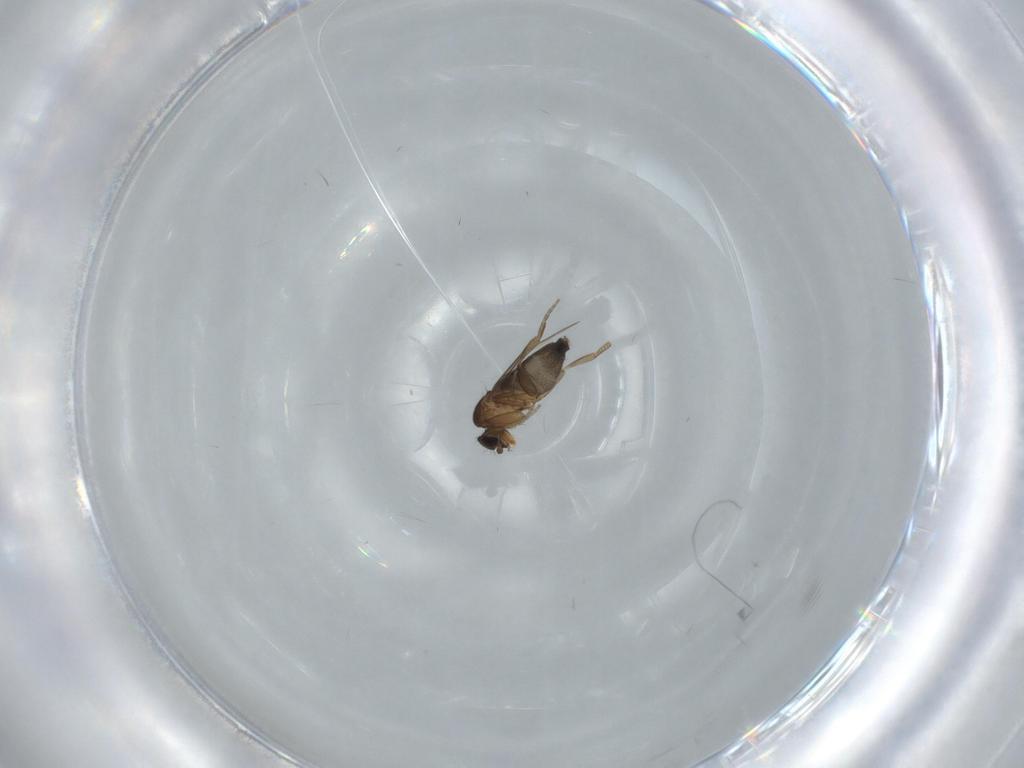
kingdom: Animalia
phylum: Arthropoda
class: Insecta
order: Diptera
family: Phoridae
